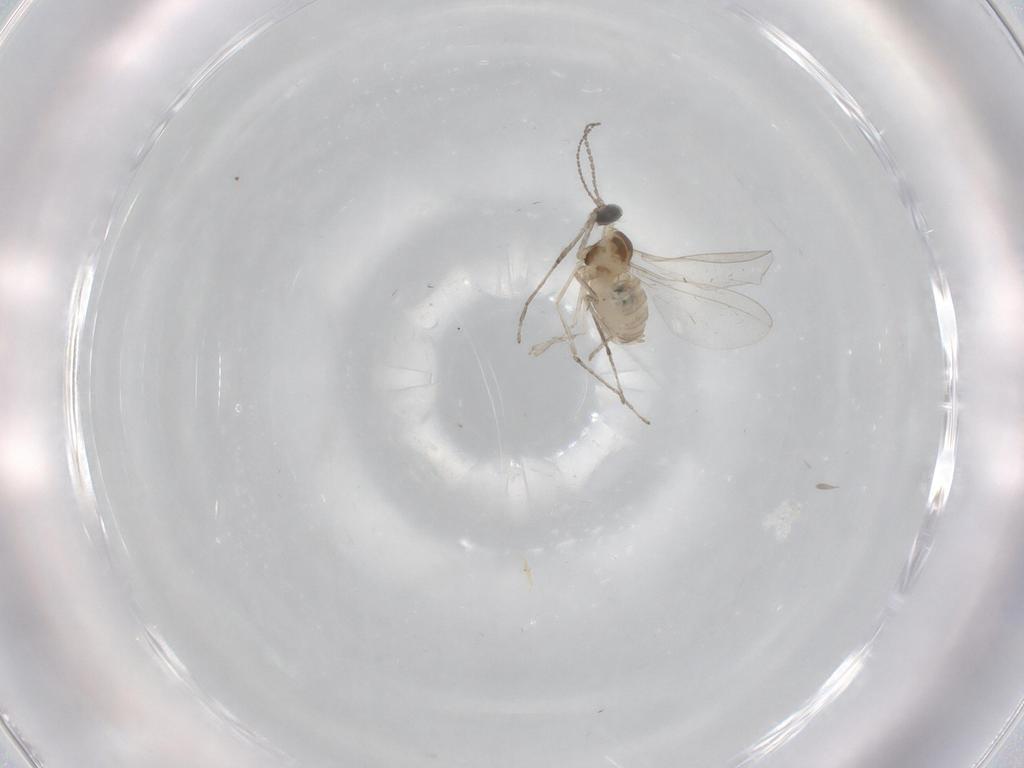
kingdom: Animalia
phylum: Arthropoda
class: Insecta
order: Diptera
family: Cecidomyiidae
